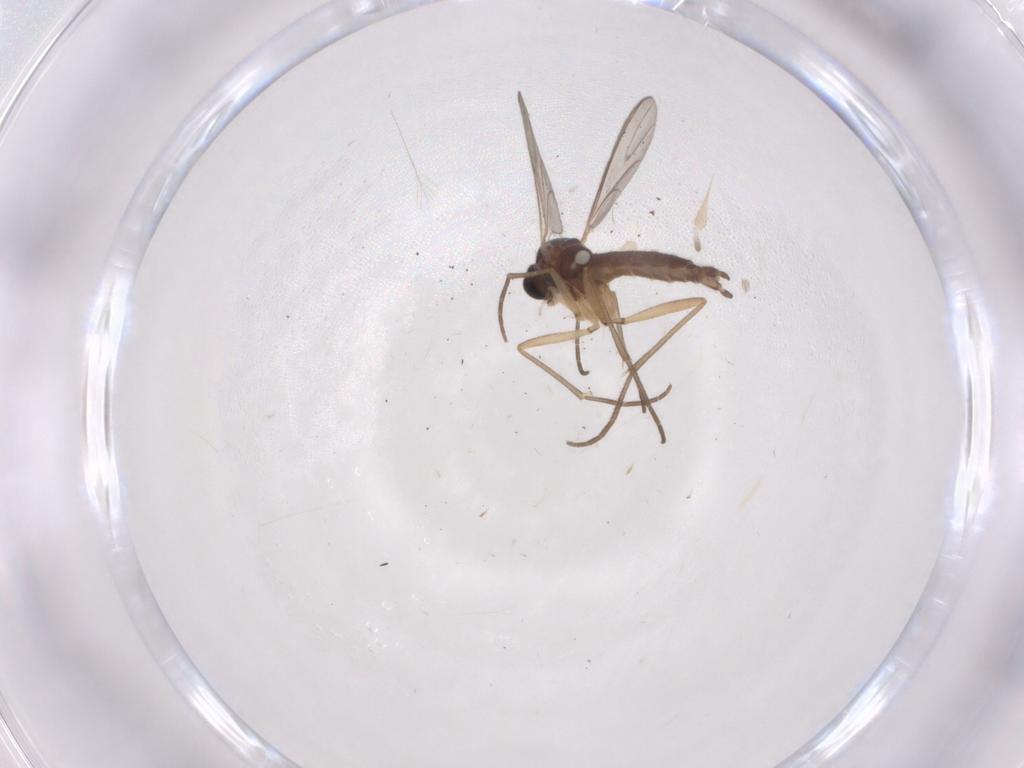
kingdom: Animalia
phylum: Arthropoda
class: Insecta
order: Diptera
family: Sciaridae
